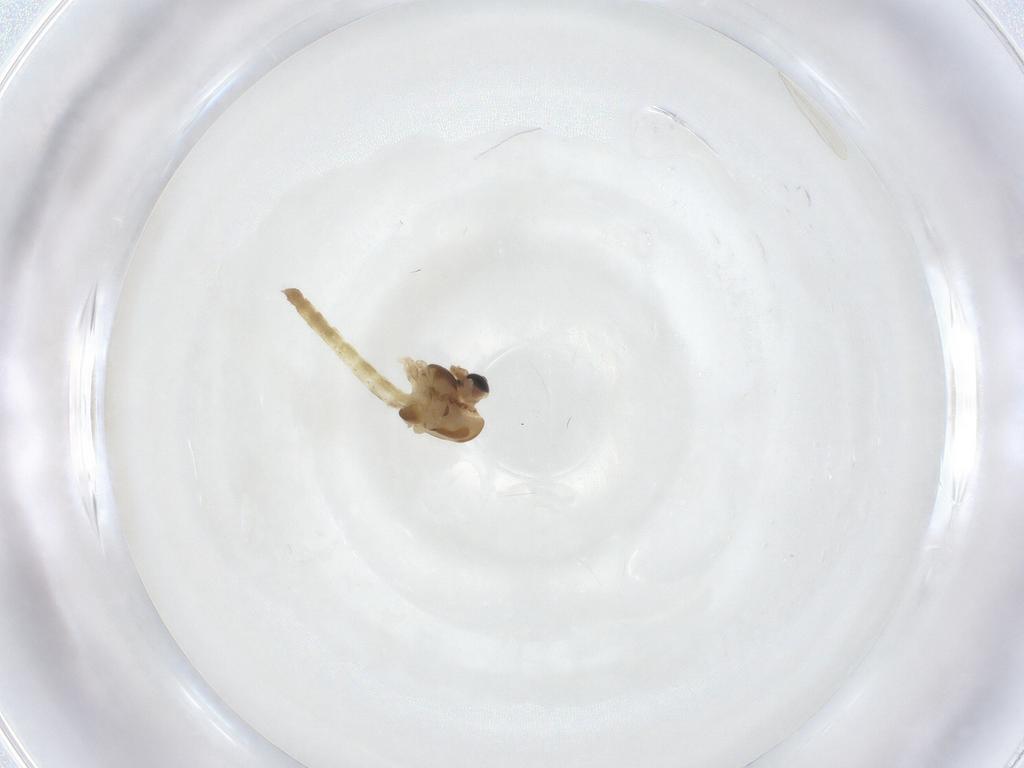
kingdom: Animalia
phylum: Arthropoda
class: Insecta
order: Diptera
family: Chironomidae
